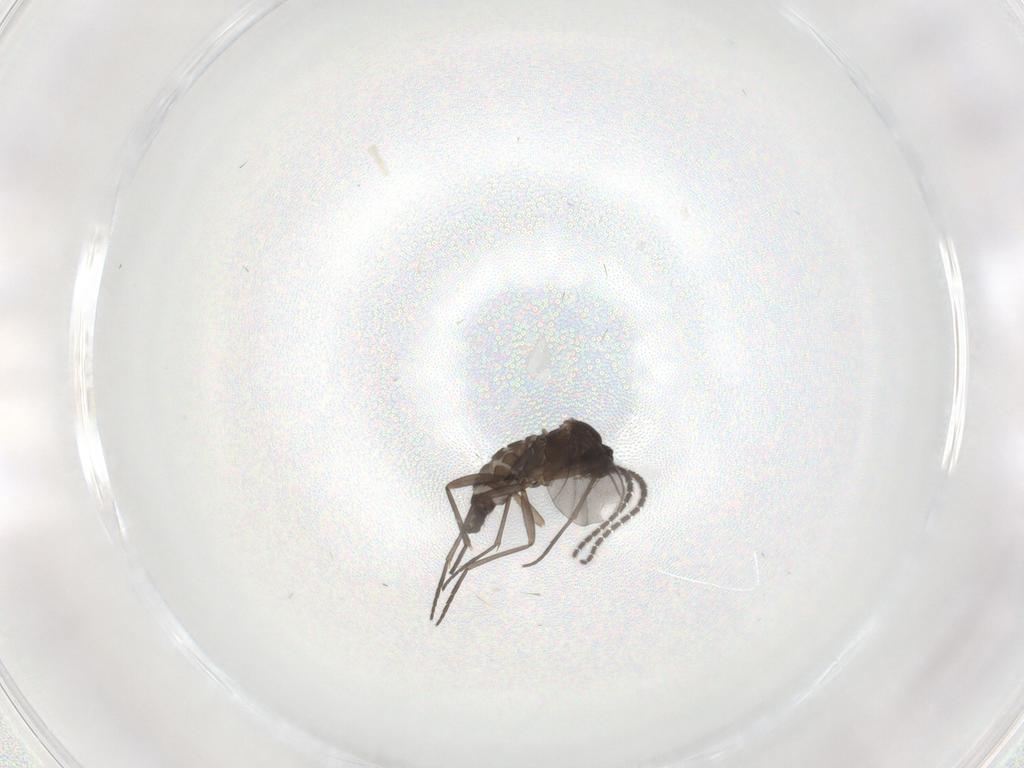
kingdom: Animalia
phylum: Arthropoda
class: Insecta
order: Diptera
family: Sciaridae
